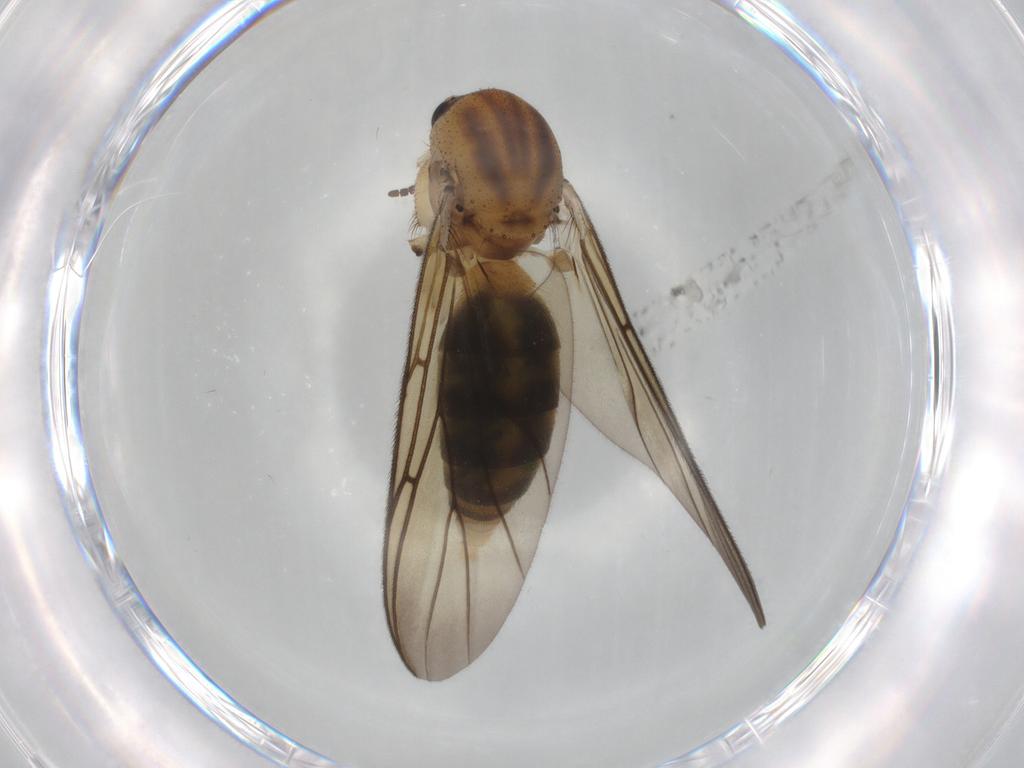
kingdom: Animalia
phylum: Arthropoda
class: Insecta
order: Diptera
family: Mycetophilidae
